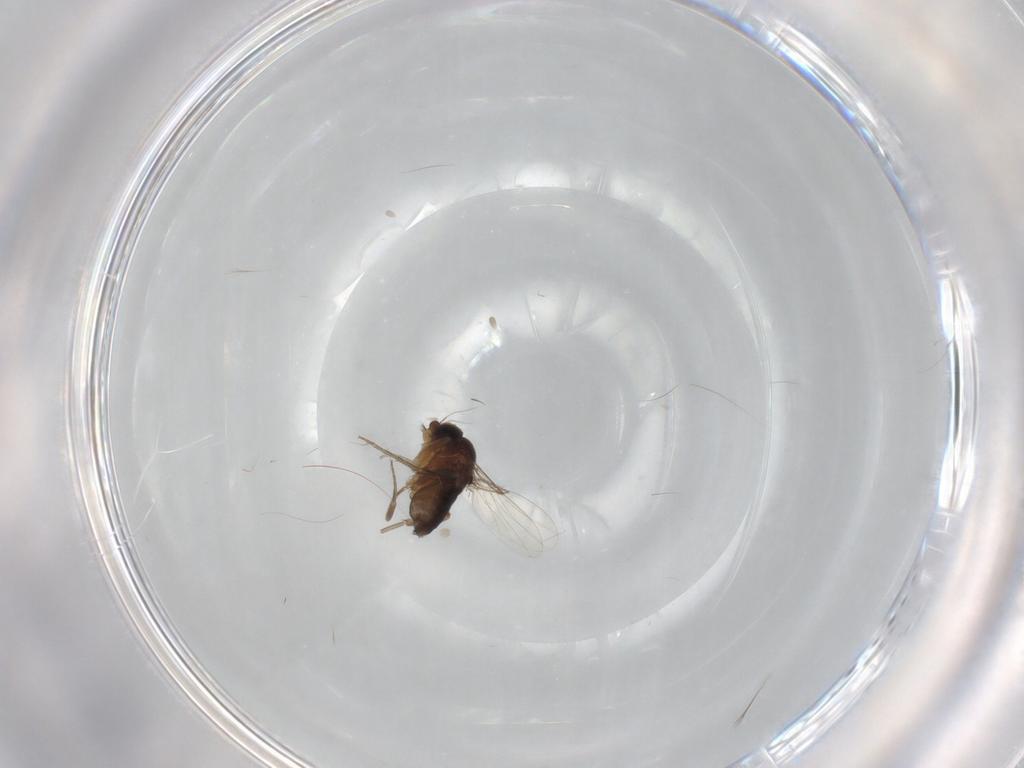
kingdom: Animalia
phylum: Arthropoda
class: Insecta
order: Diptera
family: Phoridae
